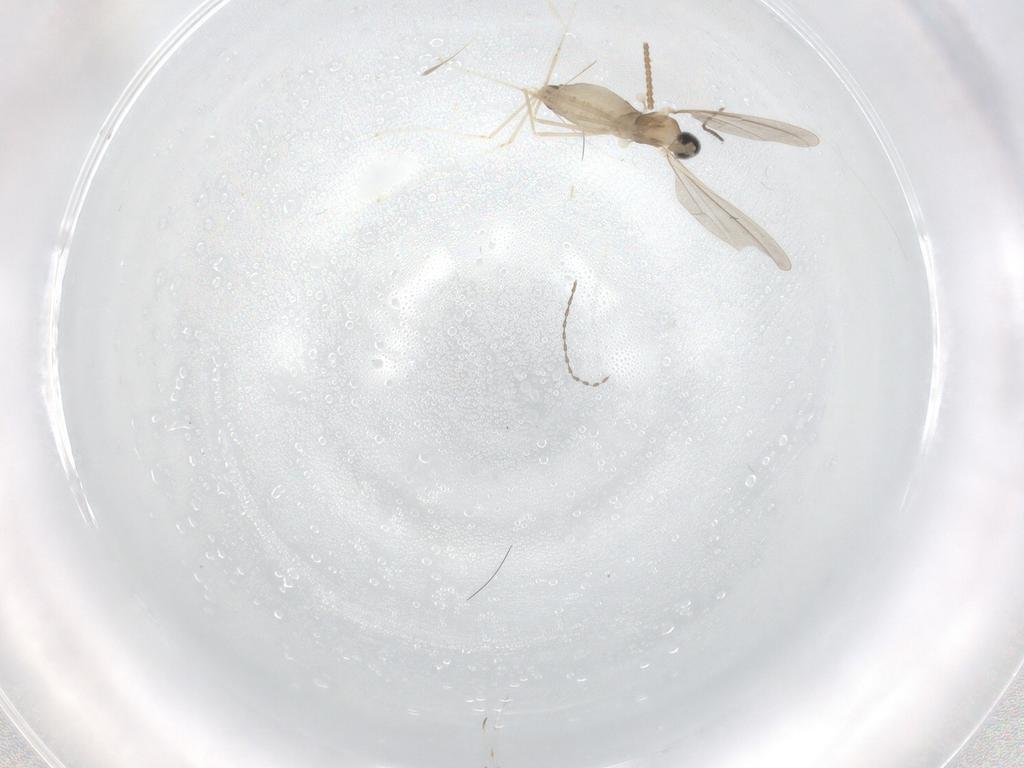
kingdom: Animalia
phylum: Arthropoda
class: Insecta
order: Diptera
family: Cecidomyiidae
